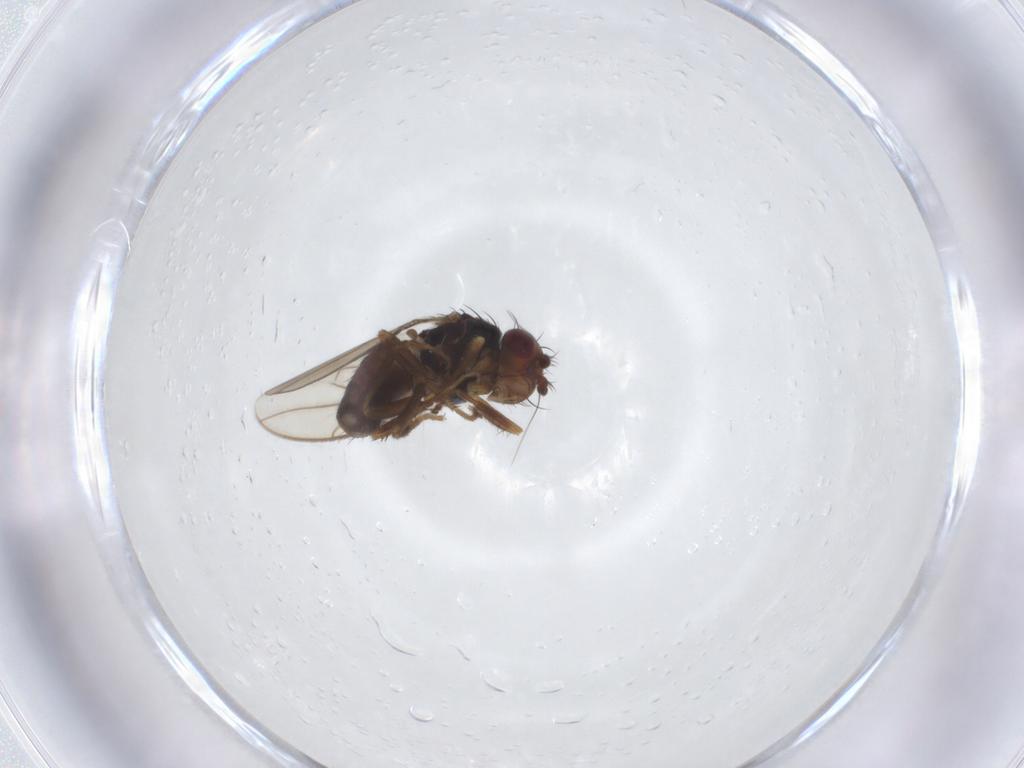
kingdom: Animalia
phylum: Arthropoda
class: Insecta
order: Diptera
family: Sphaeroceridae
